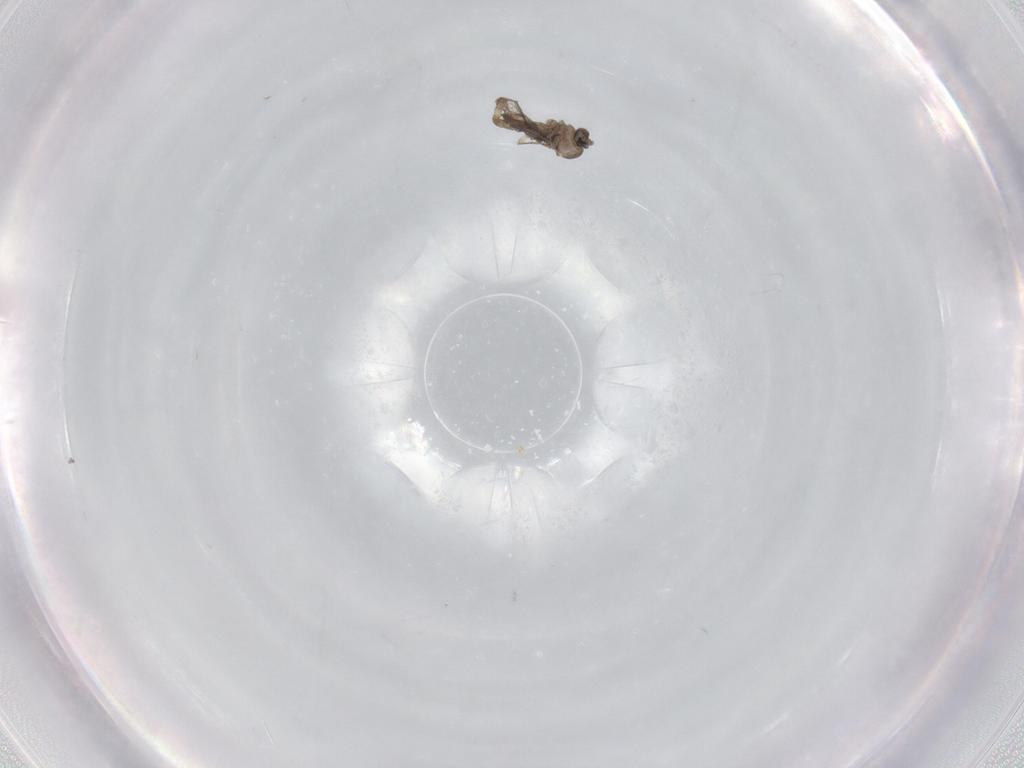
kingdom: Animalia
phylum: Arthropoda
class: Insecta
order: Diptera
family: Cecidomyiidae
